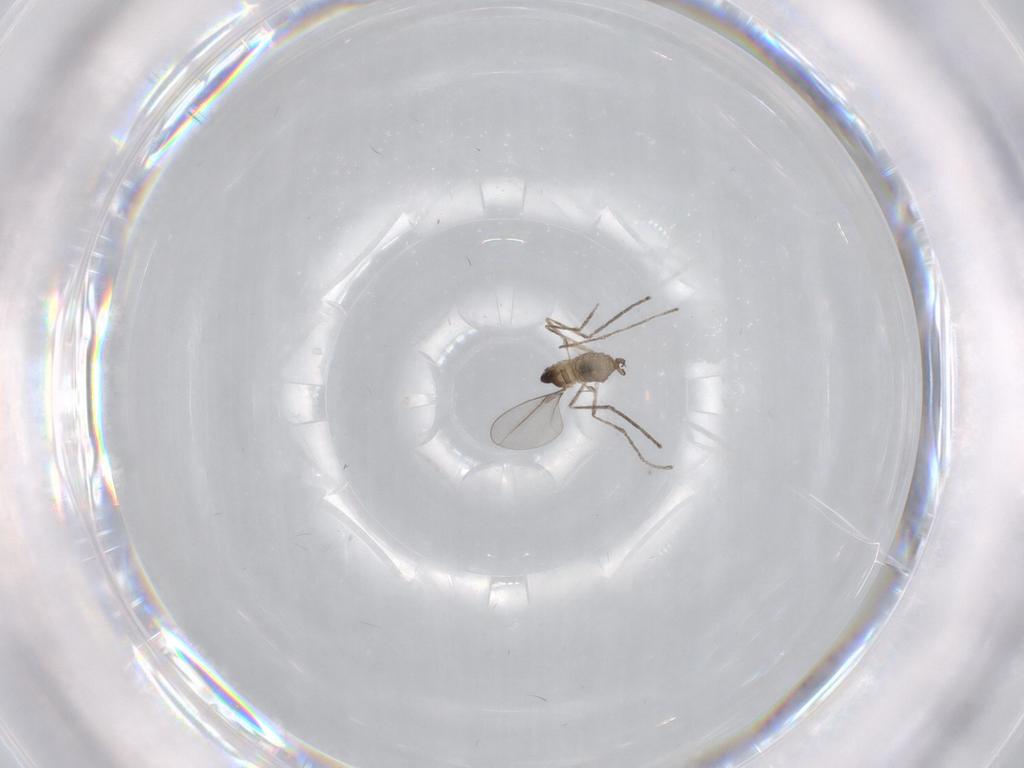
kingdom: Animalia
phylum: Arthropoda
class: Insecta
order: Diptera
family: Cecidomyiidae
